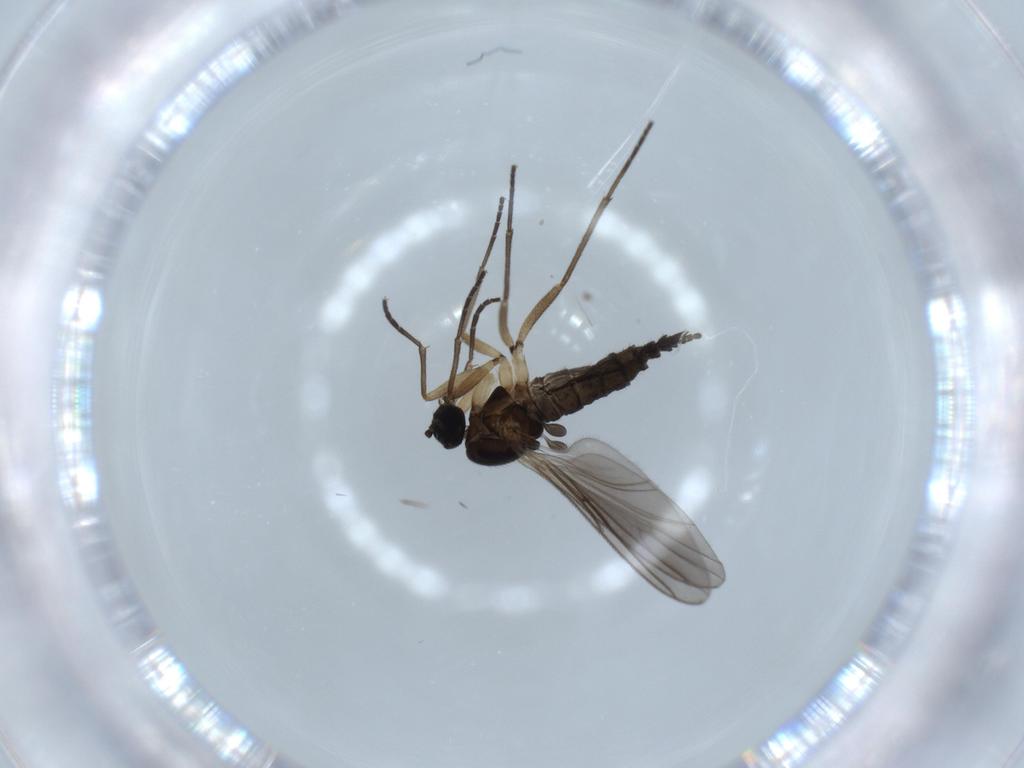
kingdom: Animalia
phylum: Arthropoda
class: Insecta
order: Diptera
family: Sciaridae
